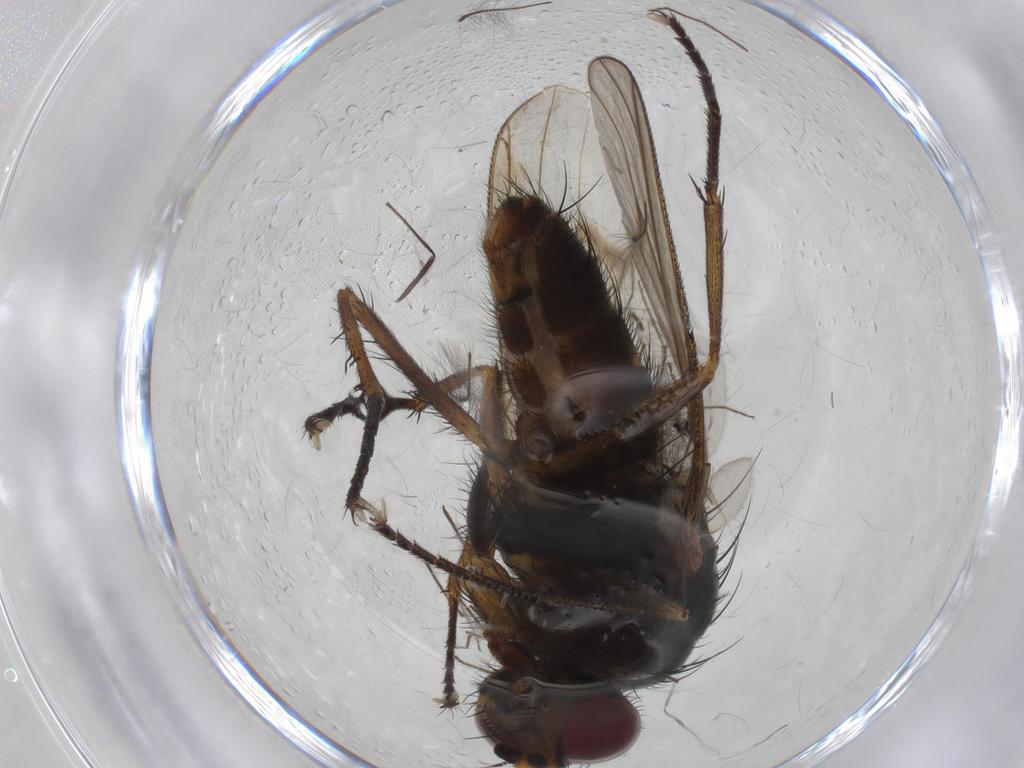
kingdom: Animalia
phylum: Arthropoda
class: Insecta
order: Diptera
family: Anthomyiidae
